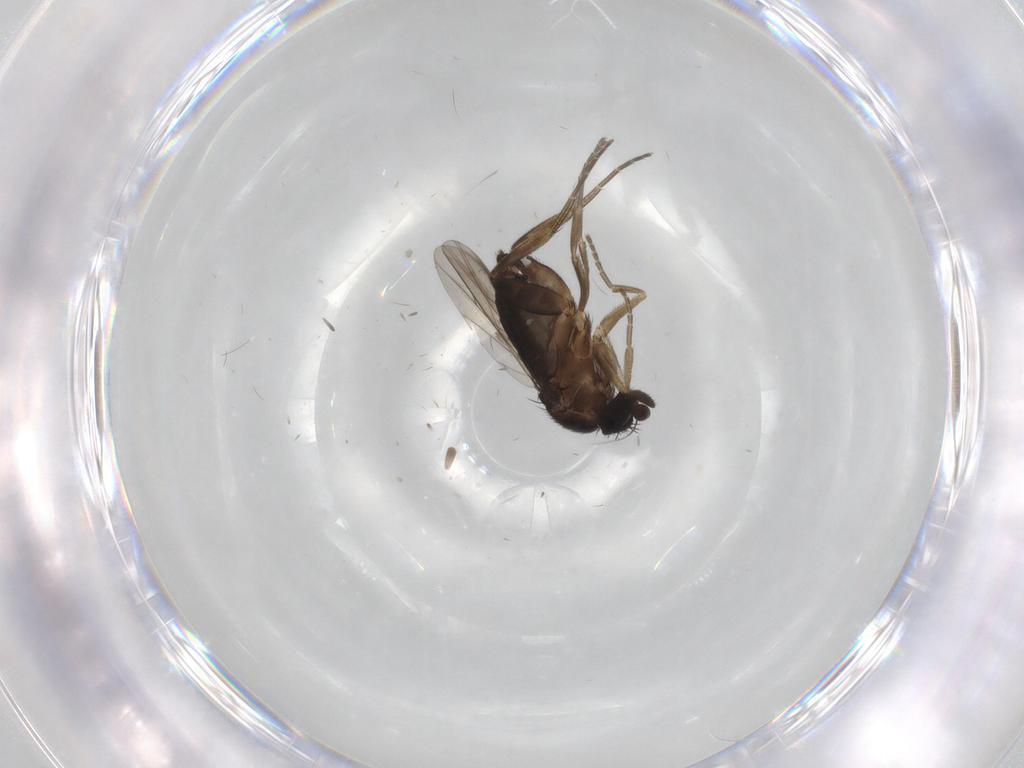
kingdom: Animalia
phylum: Arthropoda
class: Insecta
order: Diptera
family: Phoridae
